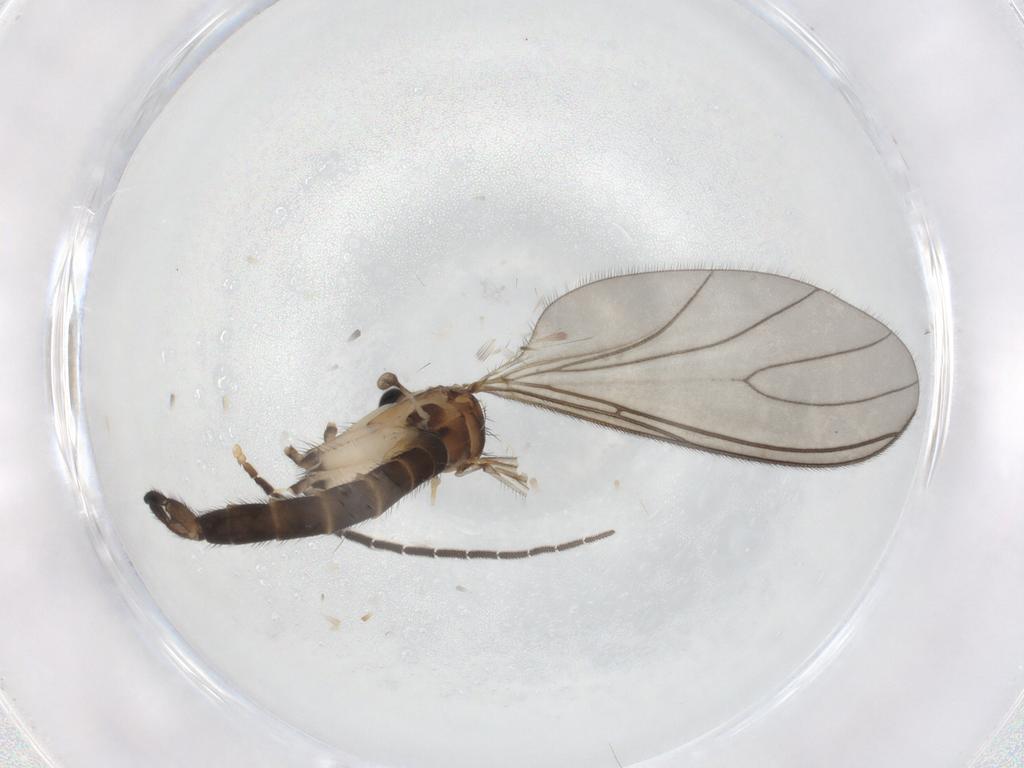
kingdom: Animalia
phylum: Arthropoda
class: Insecta
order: Diptera
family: Sciaridae
